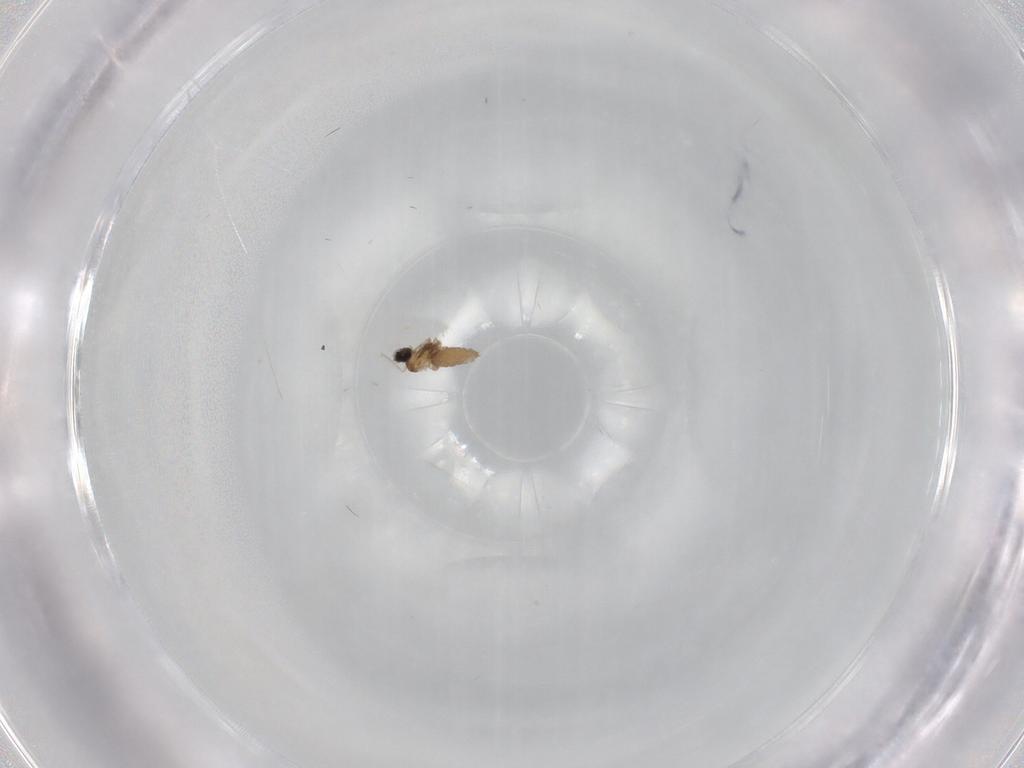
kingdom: Animalia
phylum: Arthropoda
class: Insecta
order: Diptera
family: Cecidomyiidae
